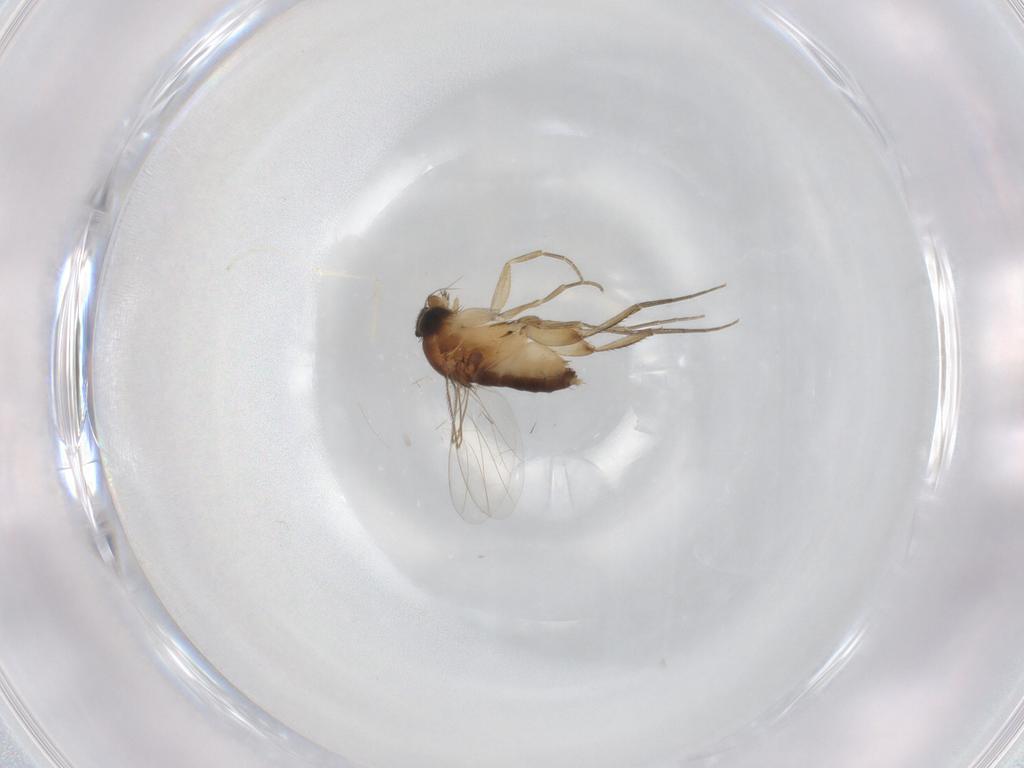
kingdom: Animalia
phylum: Arthropoda
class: Insecta
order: Diptera
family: Phoridae
